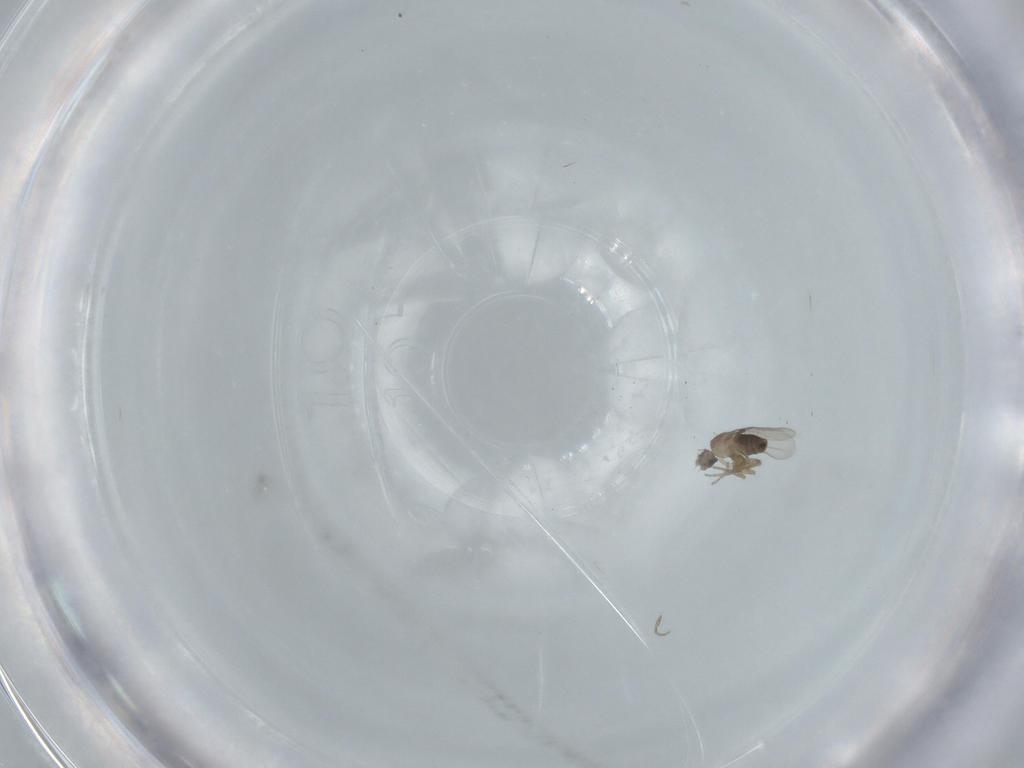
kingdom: Animalia
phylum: Arthropoda
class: Insecta
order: Diptera
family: Phoridae
